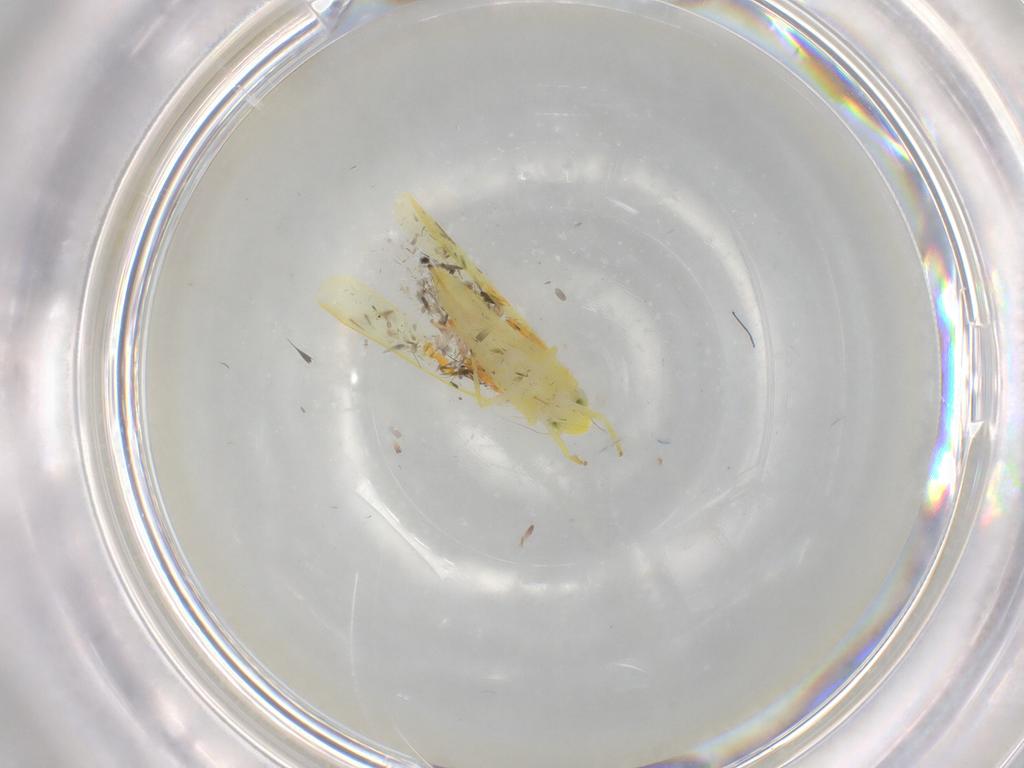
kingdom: Animalia
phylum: Arthropoda
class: Insecta
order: Hemiptera
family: Cicadellidae
